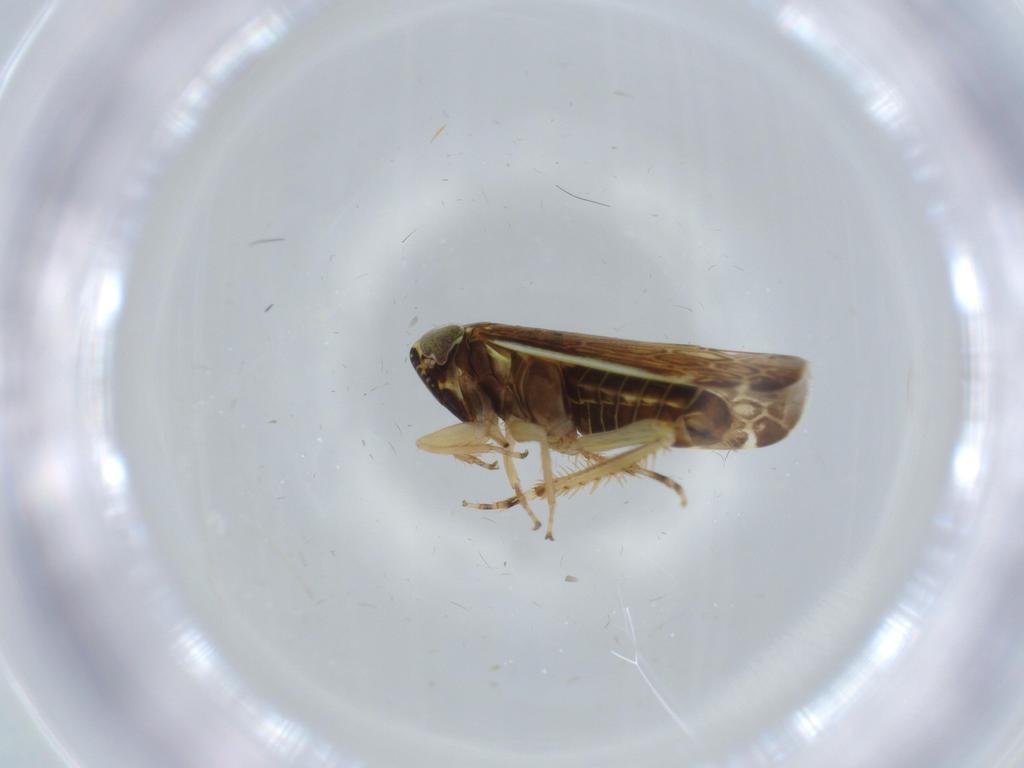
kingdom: Animalia
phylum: Arthropoda
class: Insecta
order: Hemiptera
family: Cicadellidae
